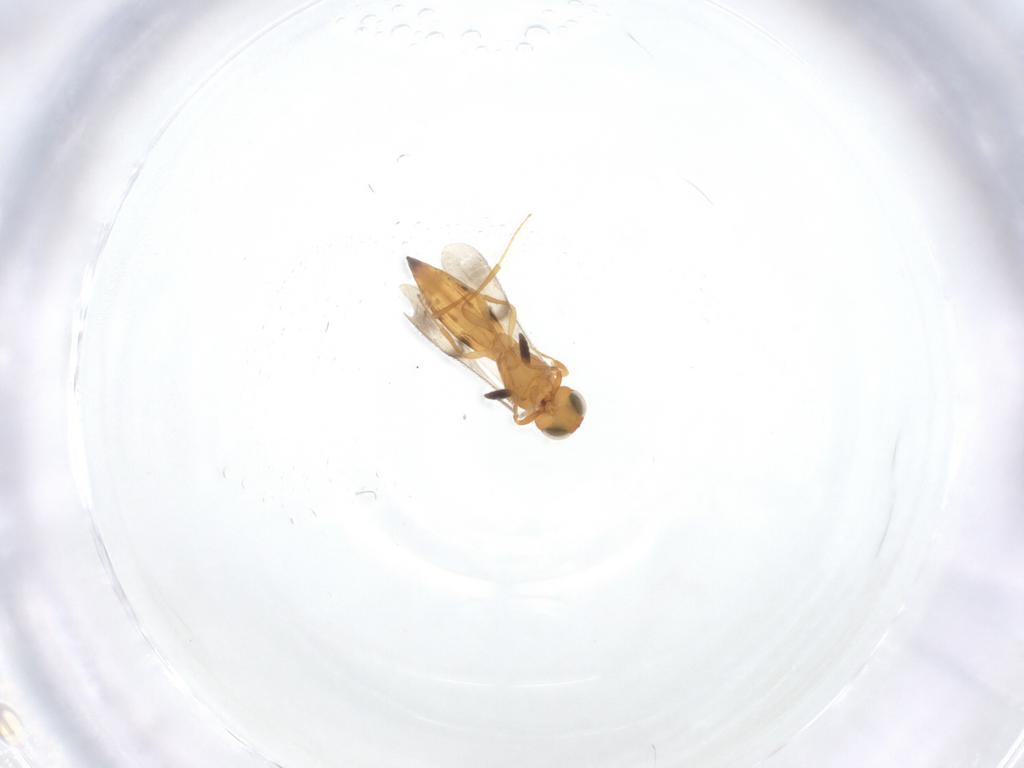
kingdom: Animalia
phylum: Arthropoda
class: Insecta
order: Hymenoptera
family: Scelionidae
